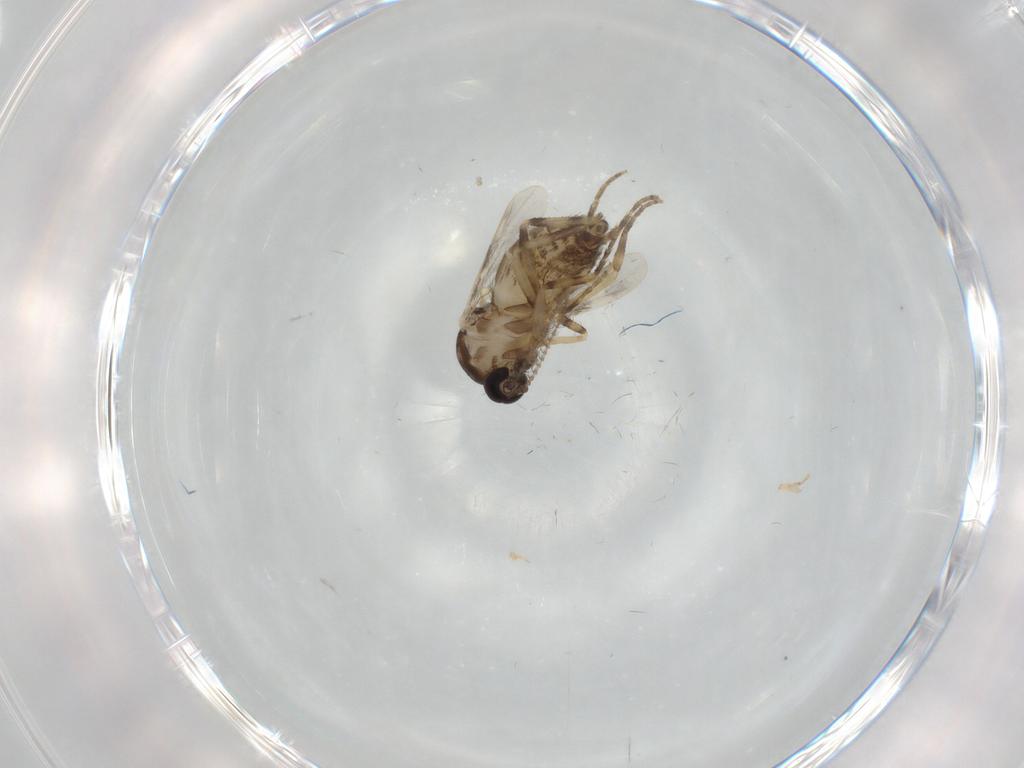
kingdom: Animalia
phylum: Arthropoda
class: Insecta
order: Diptera
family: Ceratopogonidae
